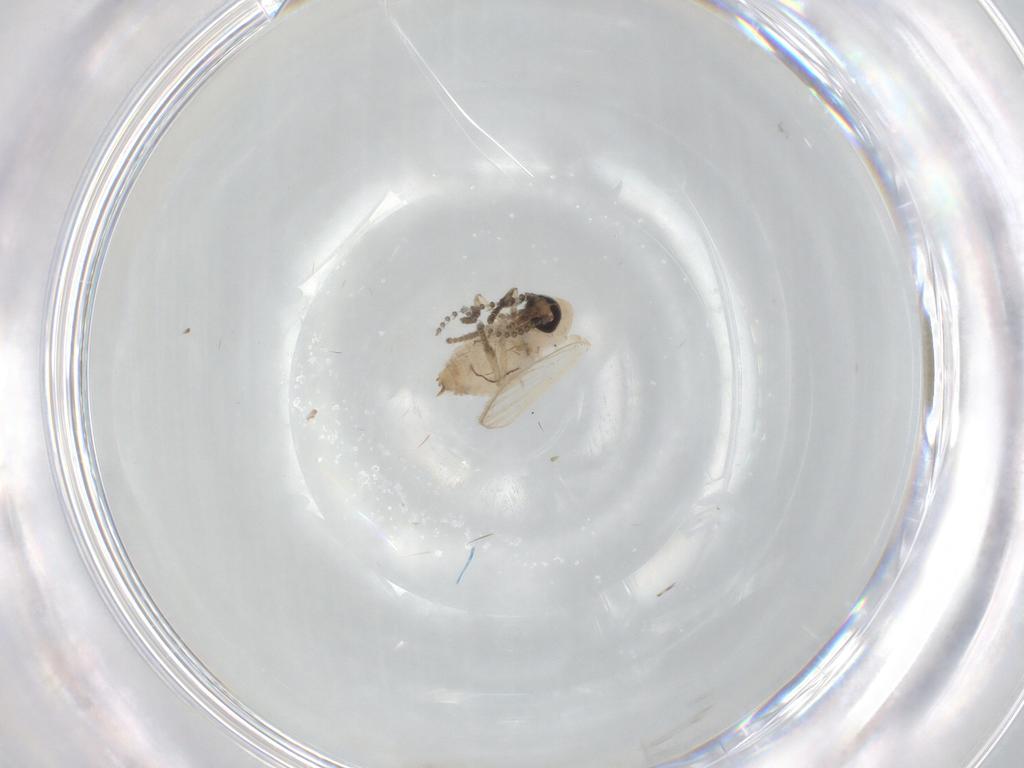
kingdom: Animalia
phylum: Arthropoda
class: Insecta
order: Diptera
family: Psychodidae
